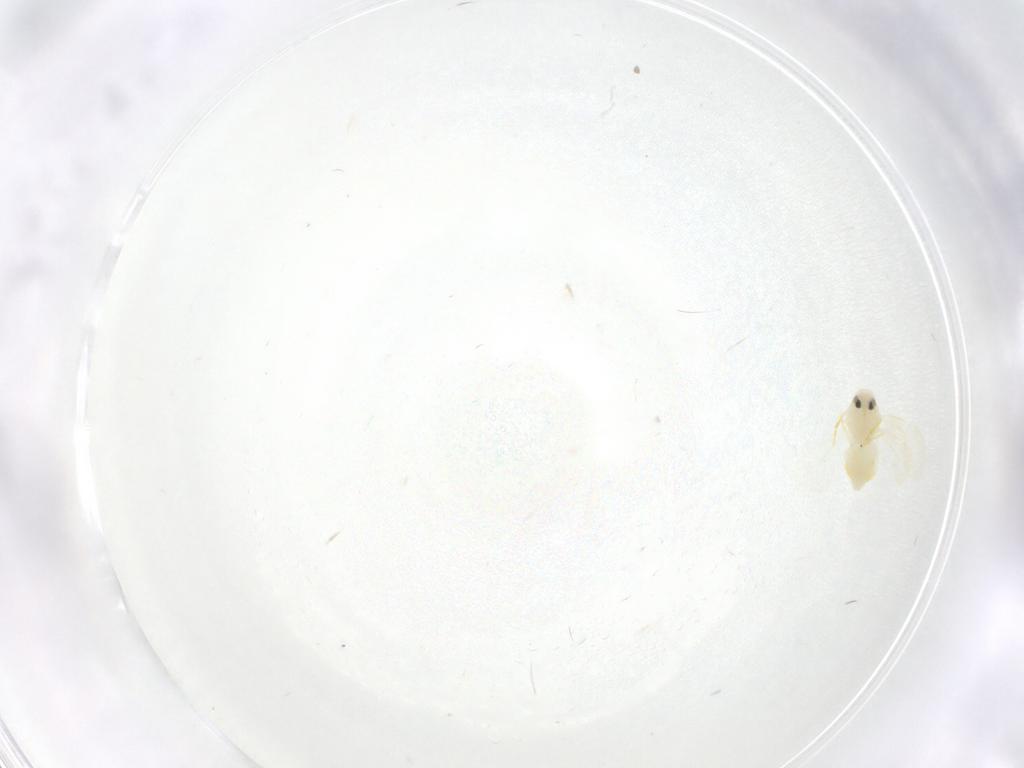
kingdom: Animalia
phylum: Arthropoda
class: Insecta
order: Hemiptera
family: Aleyrodidae
